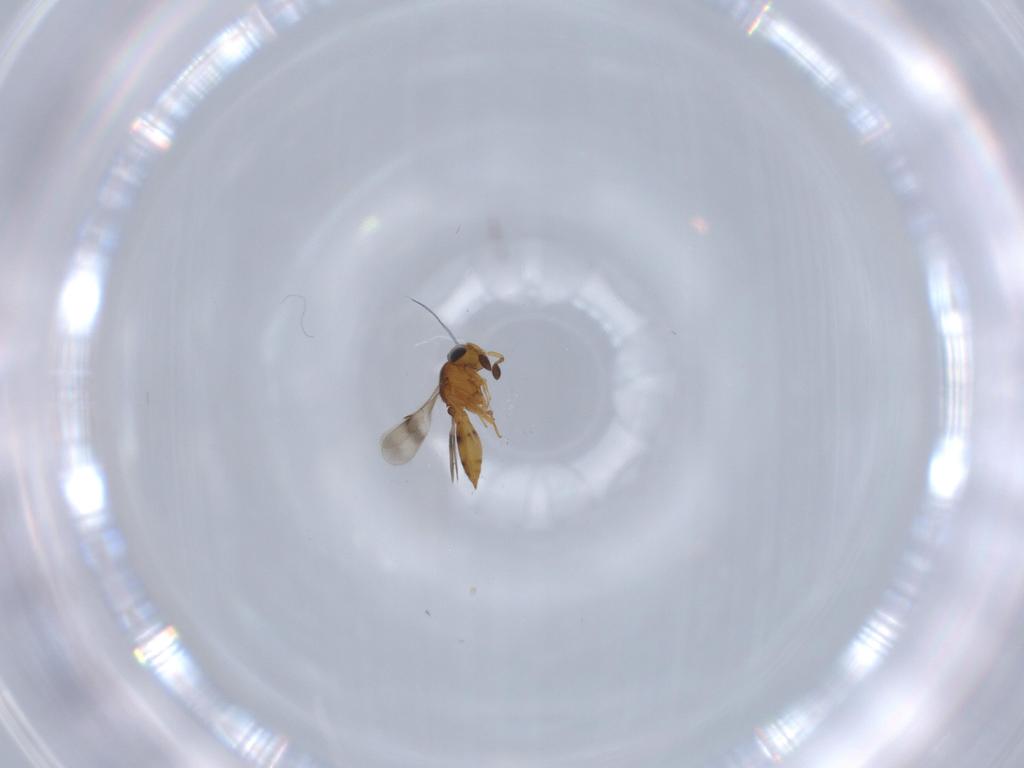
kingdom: Animalia
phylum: Arthropoda
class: Insecta
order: Hymenoptera
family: Scelionidae
